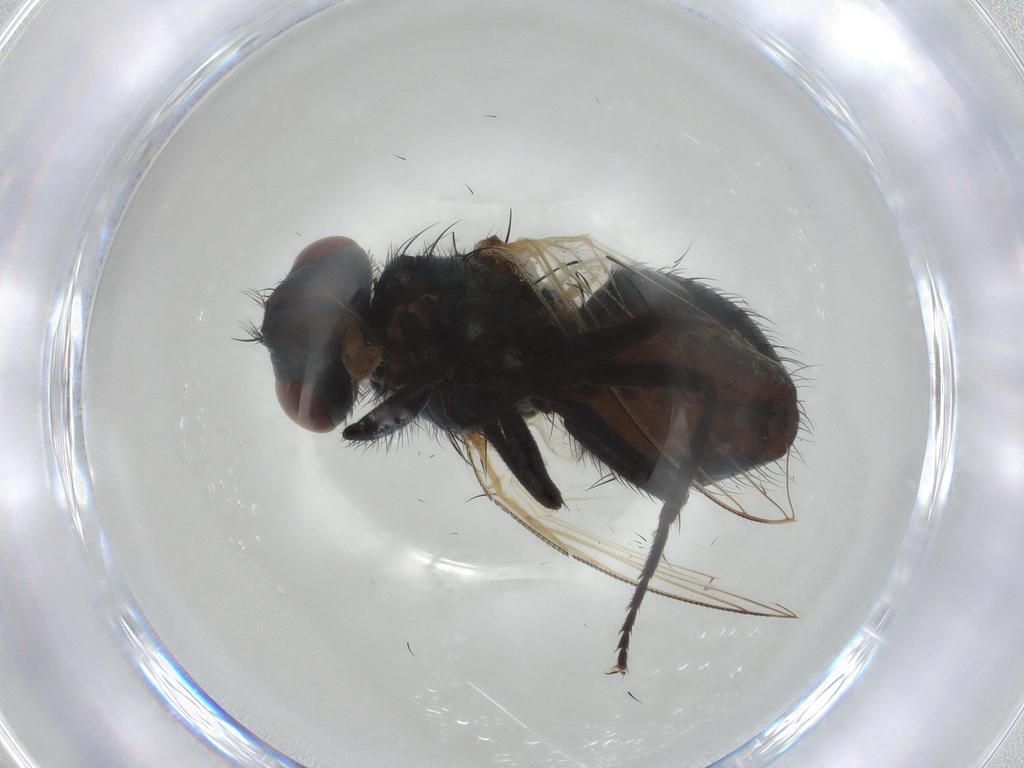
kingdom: Animalia
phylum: Arthropoda
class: Insecta
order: Diptera
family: Muscidae
